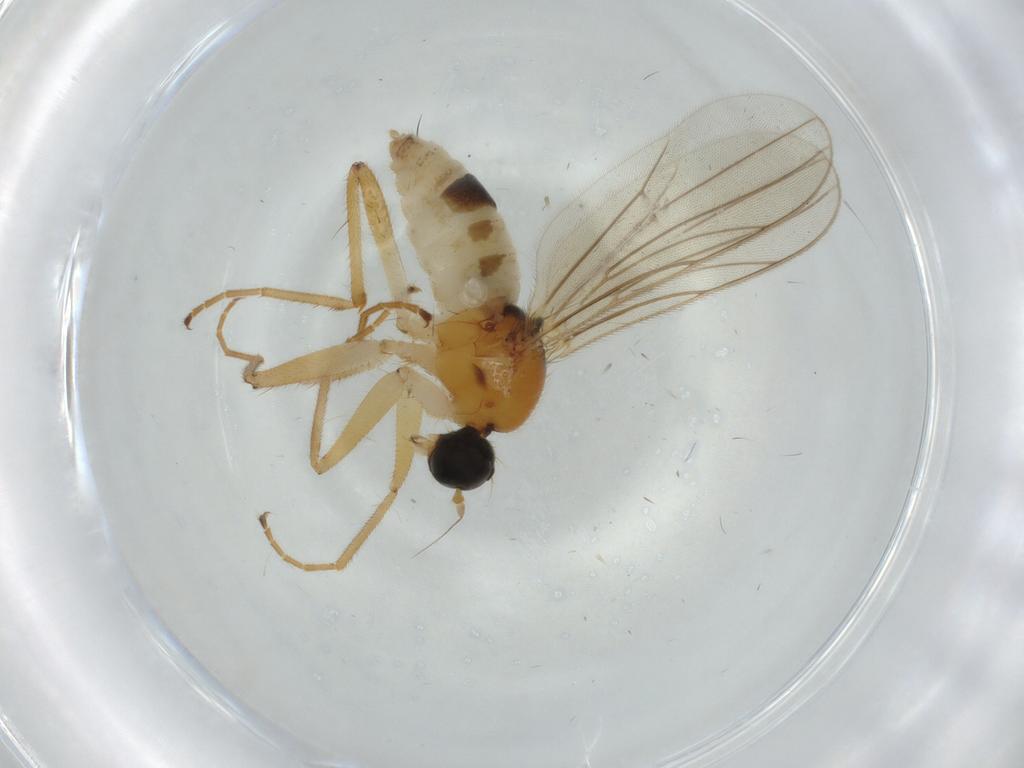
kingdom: Animalia
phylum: Arthropoda
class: Insecta
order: Diptera
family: Hybotidae
